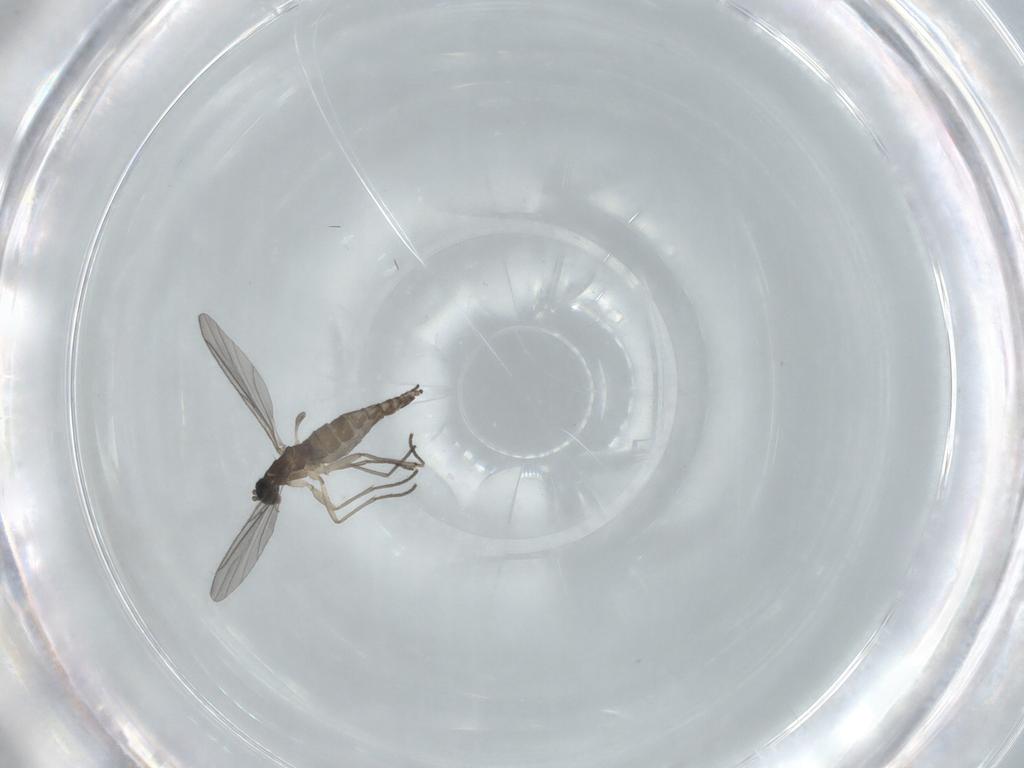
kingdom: Animalia
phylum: Arthropoda
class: Insecta
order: Diptera
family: Sciaridae
